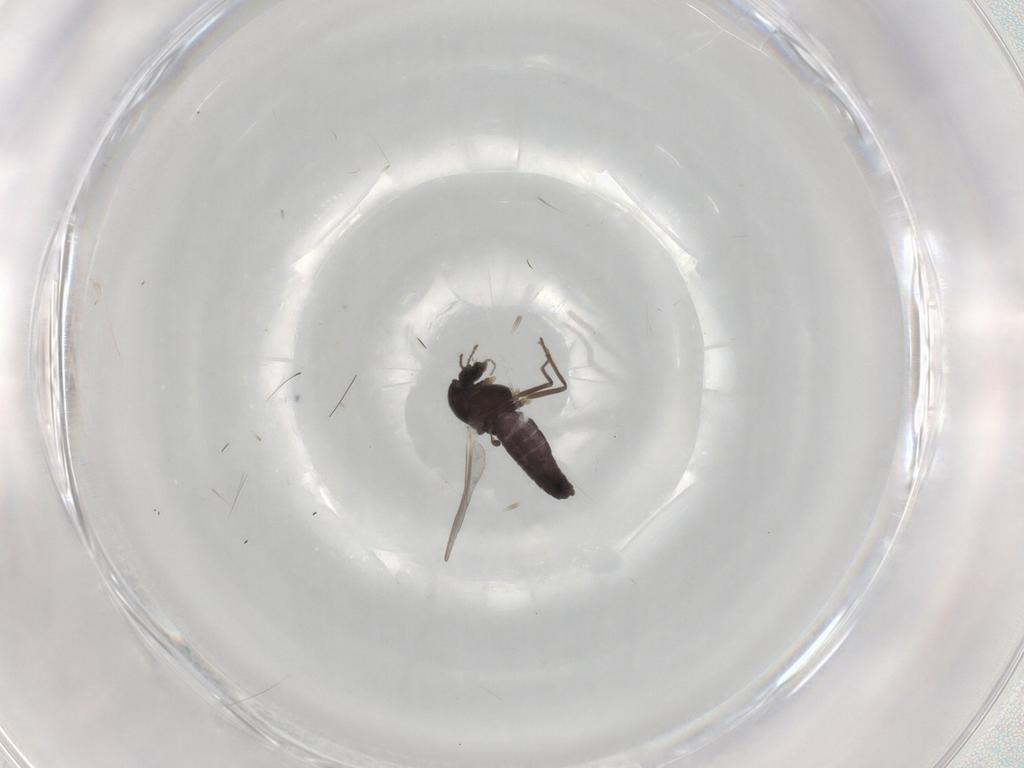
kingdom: Animalia
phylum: Arthropoda
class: Insecta
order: Diptera
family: Chironomidae
